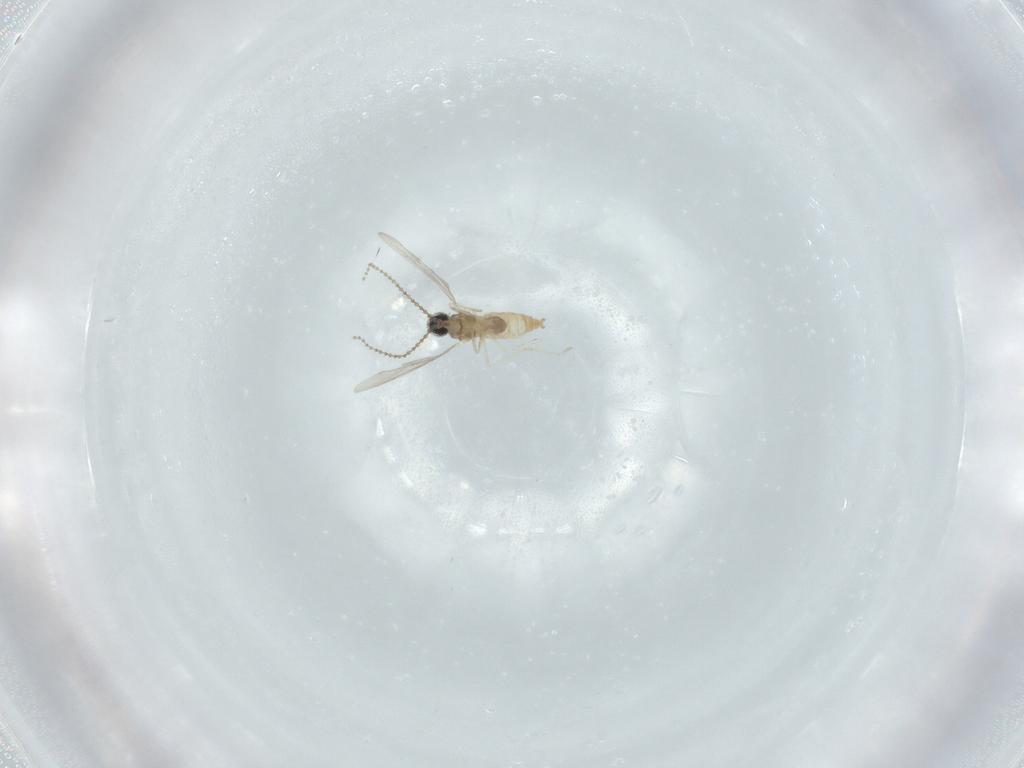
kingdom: Animalia
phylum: Arthropoda
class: Insecta
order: Diptera
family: Cecidomyiidae
